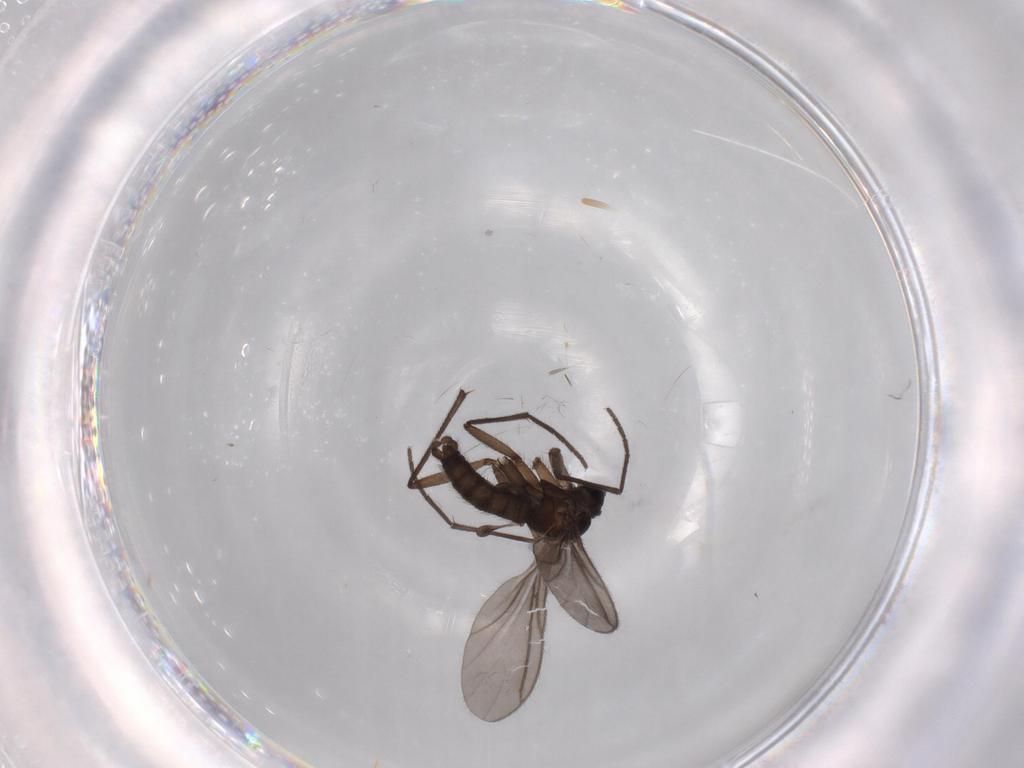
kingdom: Animalia
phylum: Arthropoda
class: Insecta
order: Diptera
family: Sciaridae
